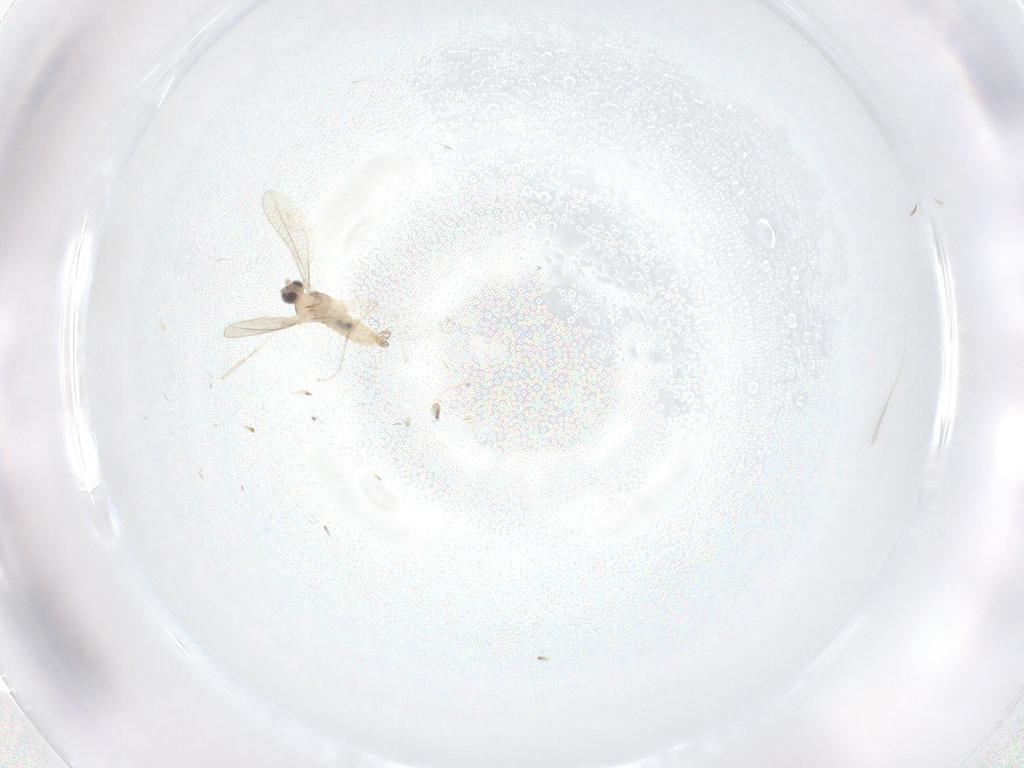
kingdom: Animalia
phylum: Arthropoda
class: Insecta
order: Diptera
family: Cecidomyiidae
